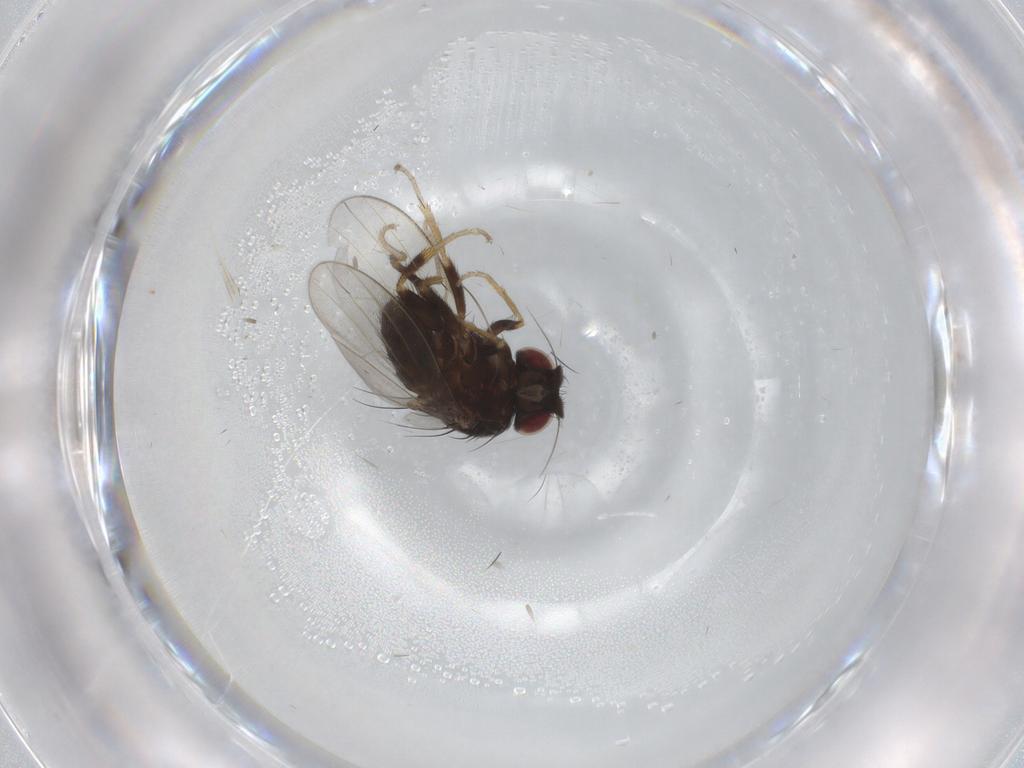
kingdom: Animalia
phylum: Arthropoda
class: Insecta
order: Diptera
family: Milichiidae
